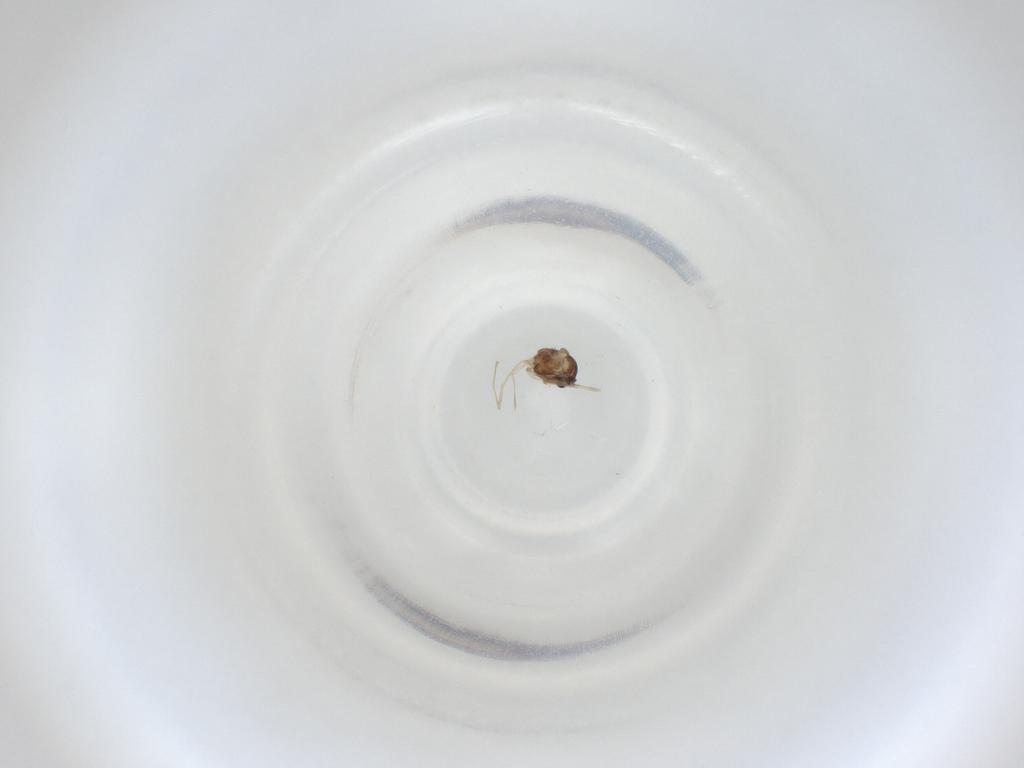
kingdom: Animalia
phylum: Arthropoda
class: Insecta
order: Diptera
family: Cecidomyiidae
